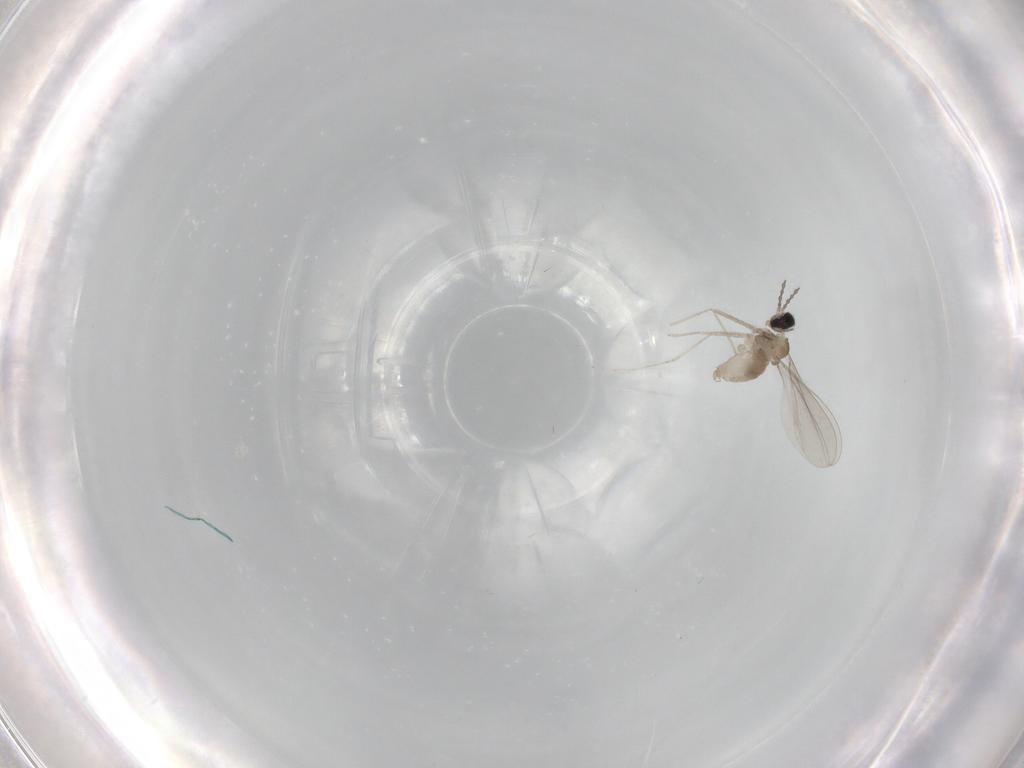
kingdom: Animalia
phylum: Arthropoda
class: Insecta
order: Diptera
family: Cecidomyiidae
